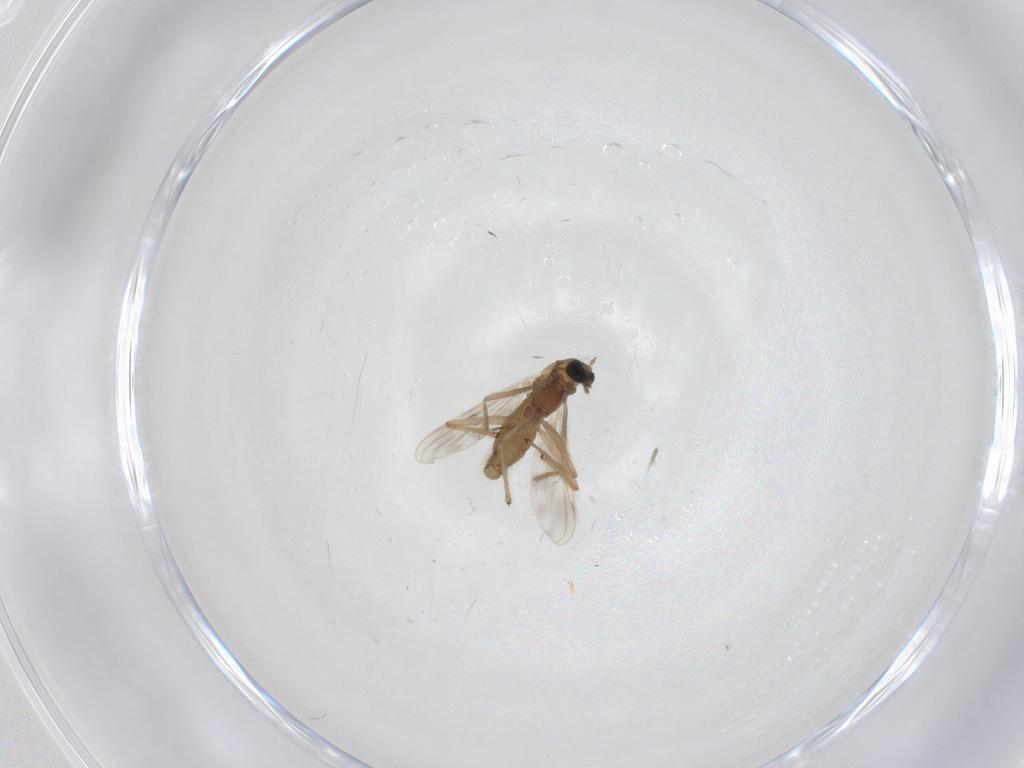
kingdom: Animalia
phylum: Arthropoda
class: Insecta
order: Diptera
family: Chironomidae
